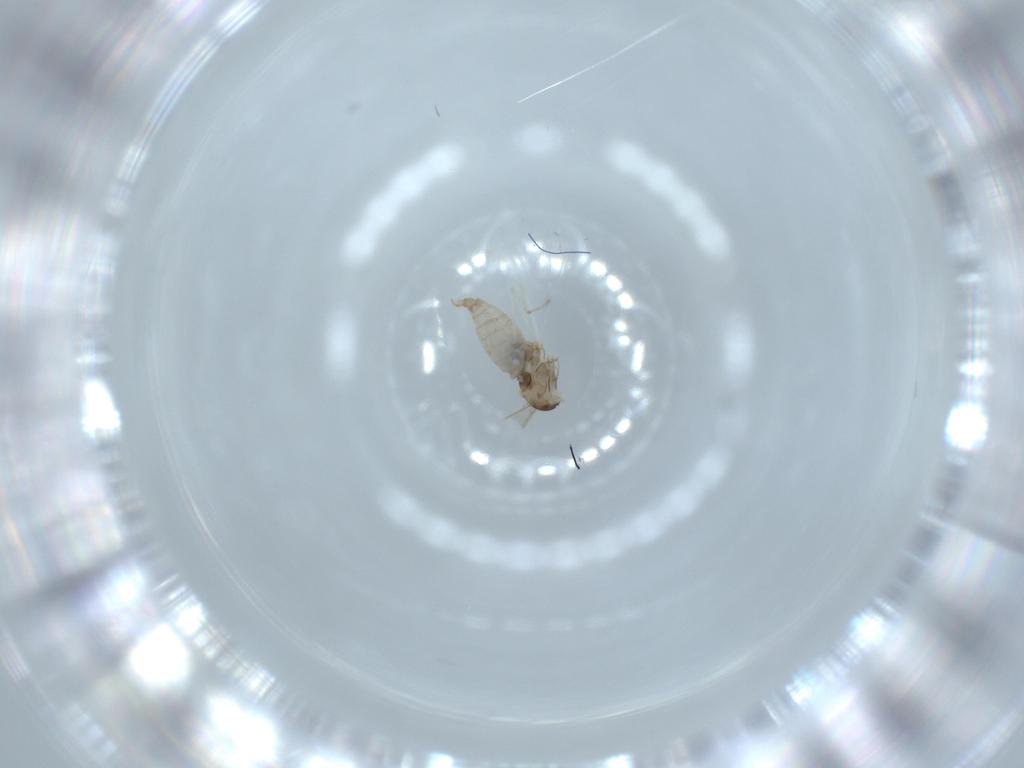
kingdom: Animalia
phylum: Arthropoda
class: Insecta
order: Diptera
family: Cecidomyiidae
